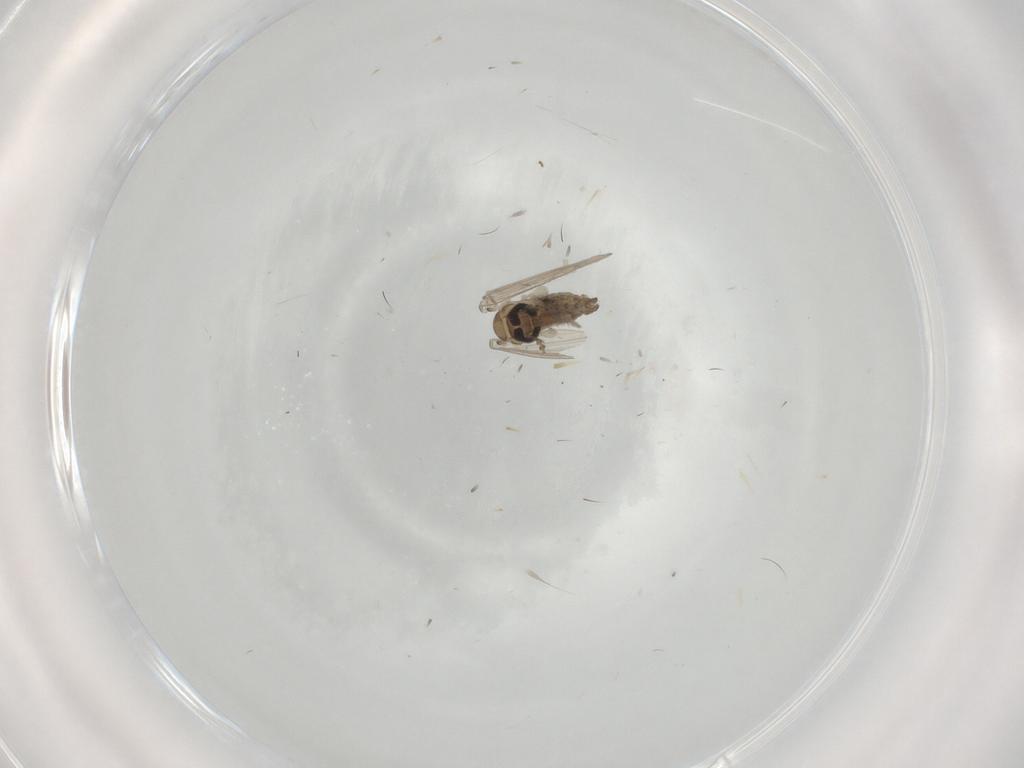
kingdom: Animalia
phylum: Arthropoda
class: Insecta
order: Diptera
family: Psychodidae
